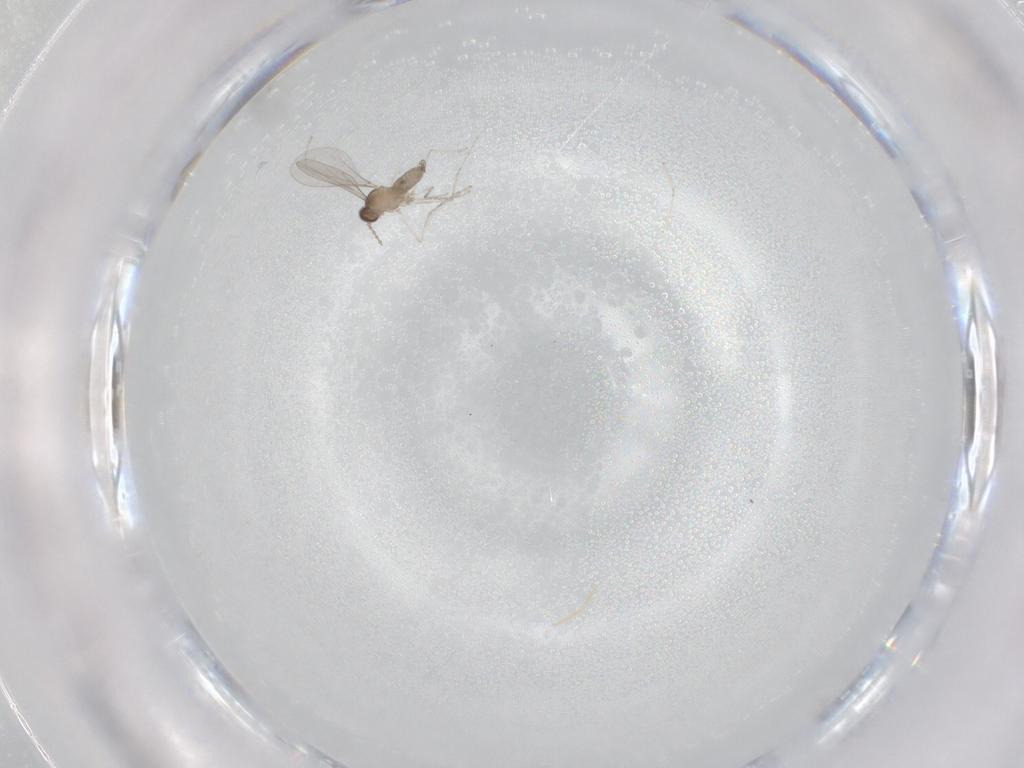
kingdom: Animalia
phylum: Arthropoda
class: Insecta
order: Diptera
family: Cecidomyiidae
